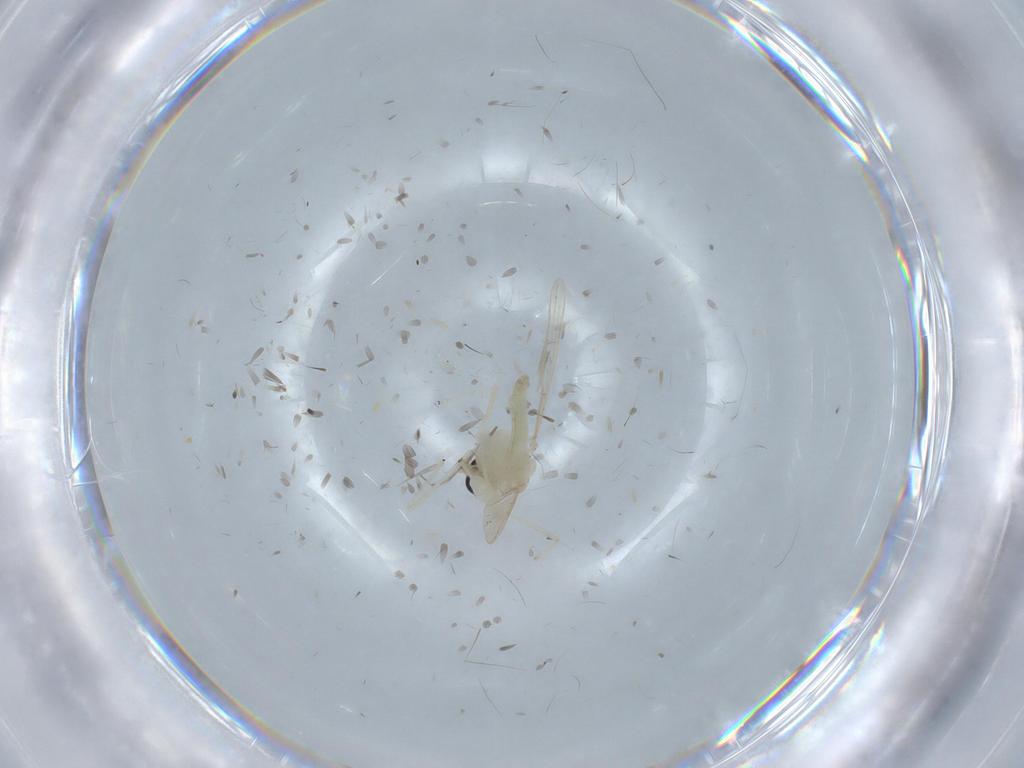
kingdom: Animalia
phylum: Arthropoda
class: Insecta
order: Diptera
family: Chironomidae
